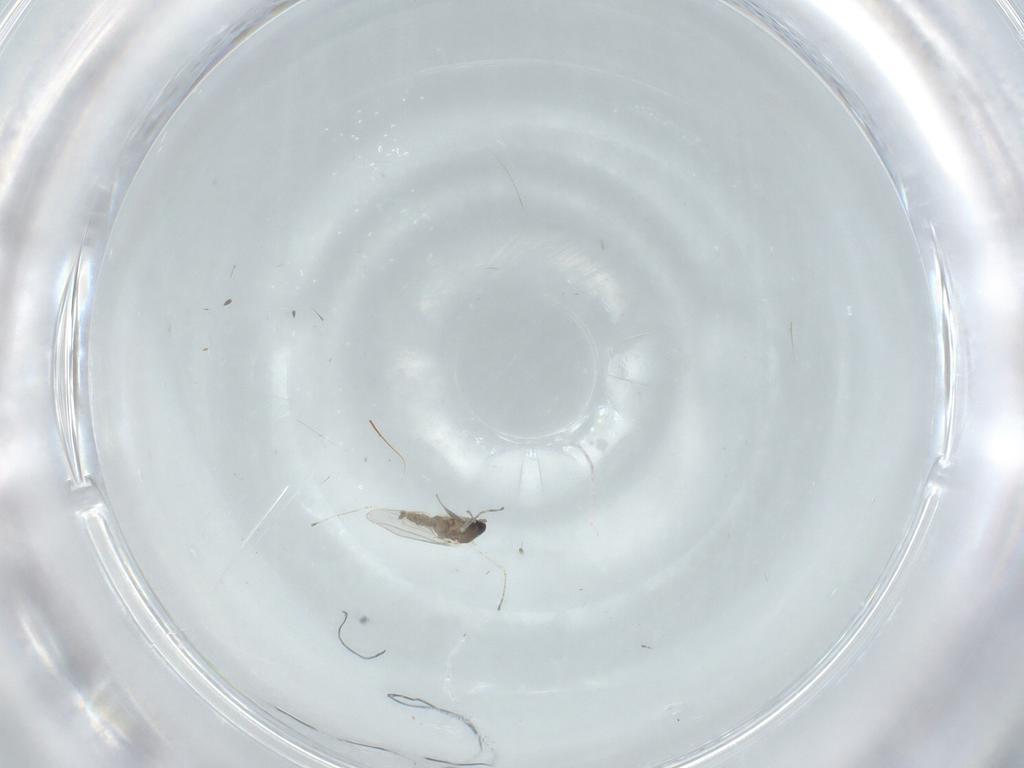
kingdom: Animalia
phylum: Arthropoda
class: Insecta
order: Diptera
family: Cecidomyiidae
